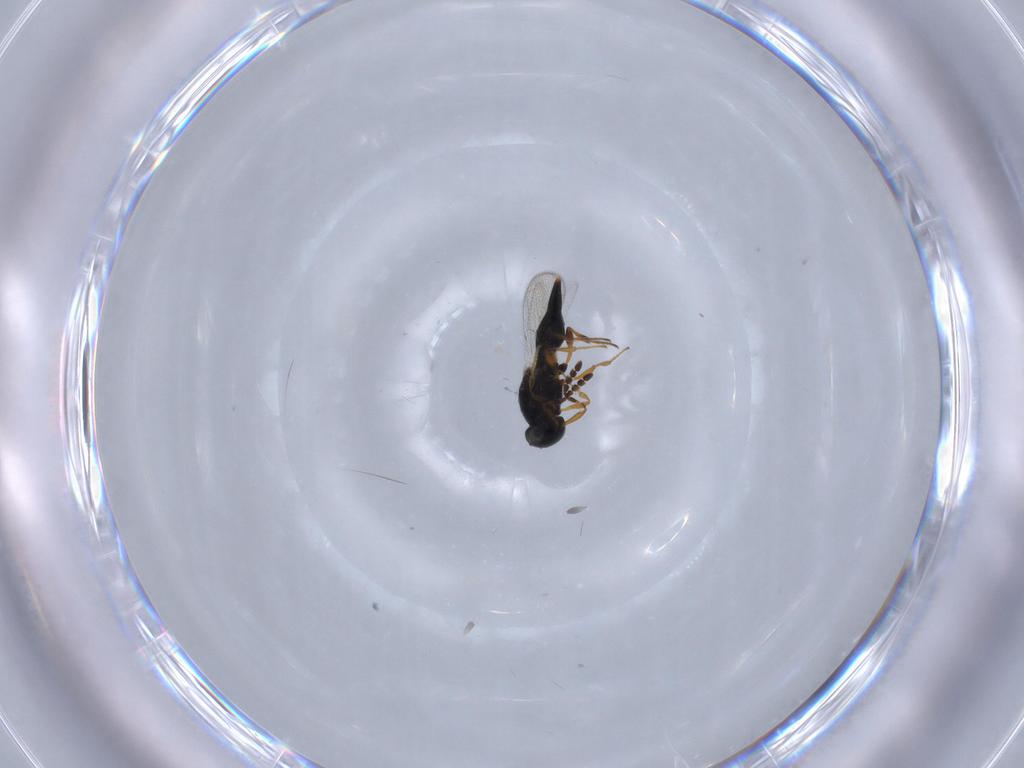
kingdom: Animalia
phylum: Arthropoda
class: Insecta
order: Hymenoptera
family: Platygastridae
